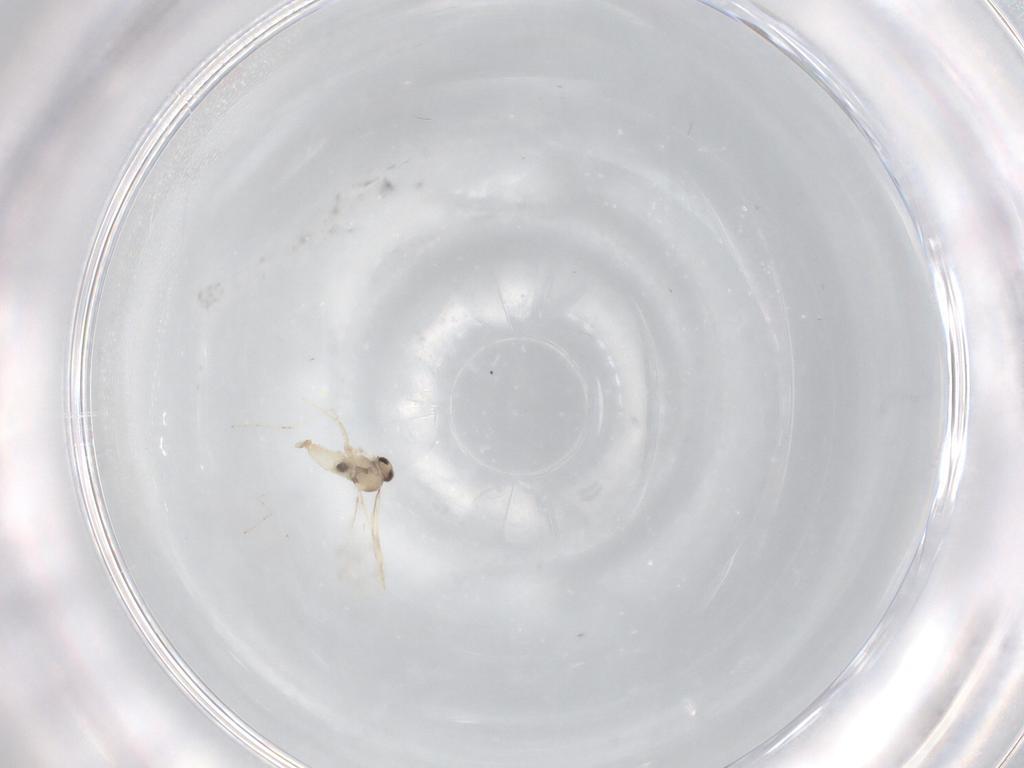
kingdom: Animalia
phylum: Arthropoda
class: Insecta
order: Diptera
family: Cecidomyiidae
